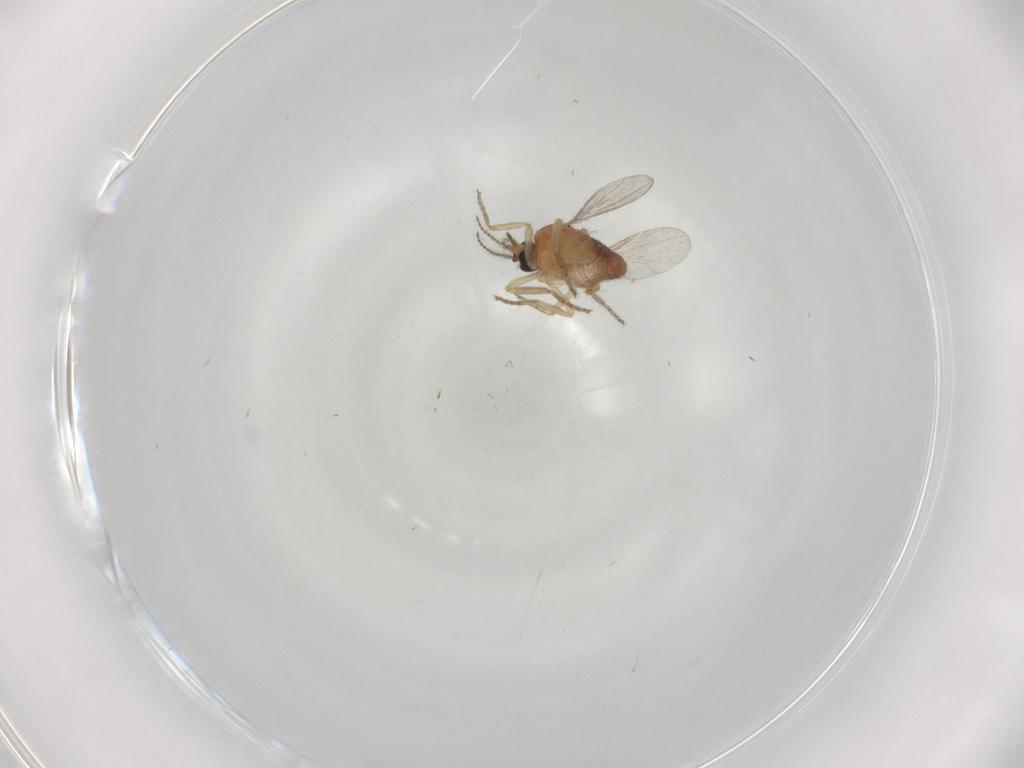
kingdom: Animalia
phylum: Arthropoda
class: Insecta
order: Diptera
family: Ceratopogonidae
